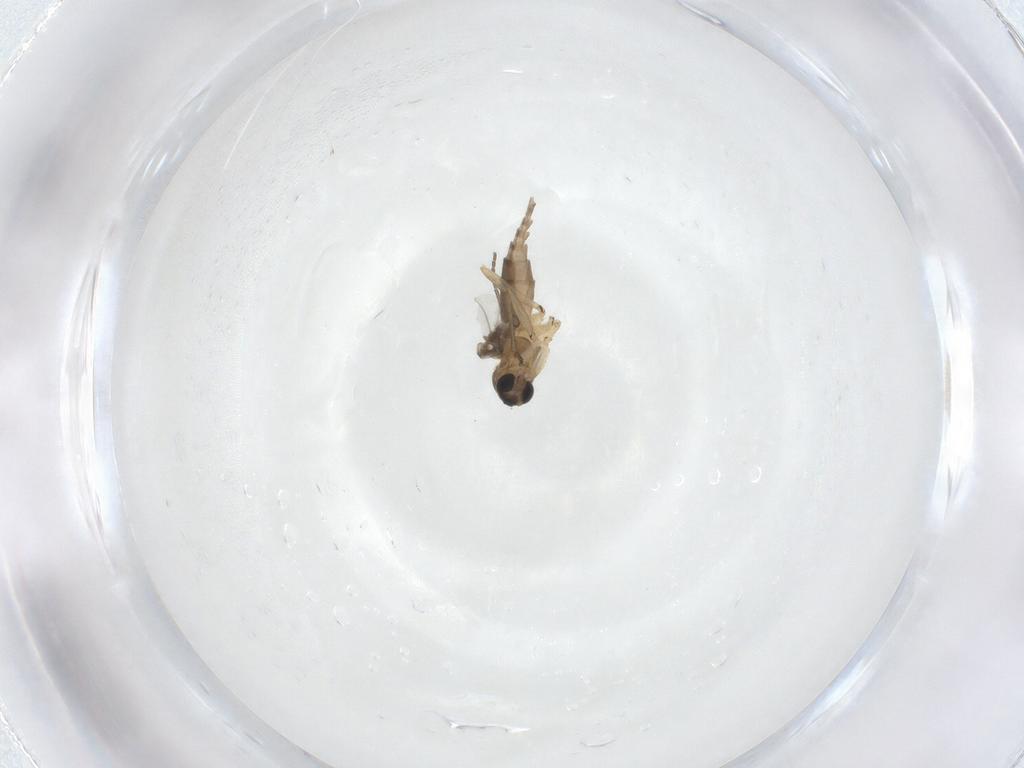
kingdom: Animalia
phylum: Arthropoda
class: Insecta
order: Diptera
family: Sciaridae
